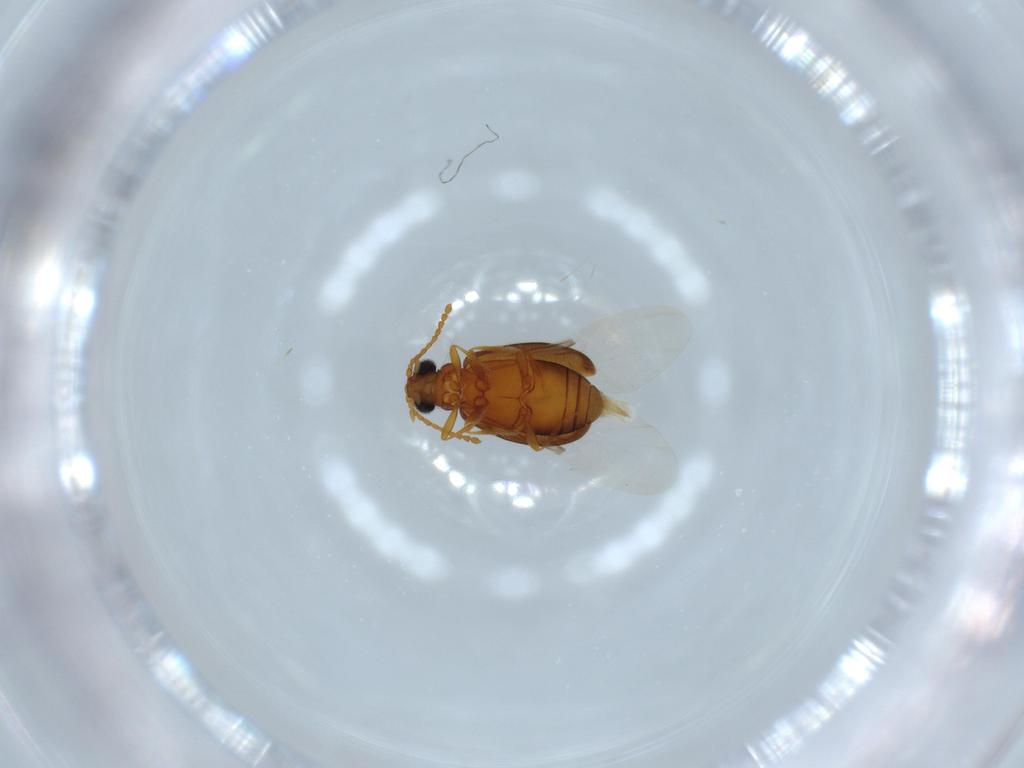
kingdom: Animalia
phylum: Arthropoda
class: Insecta
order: Coleoptera
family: Aderidae
